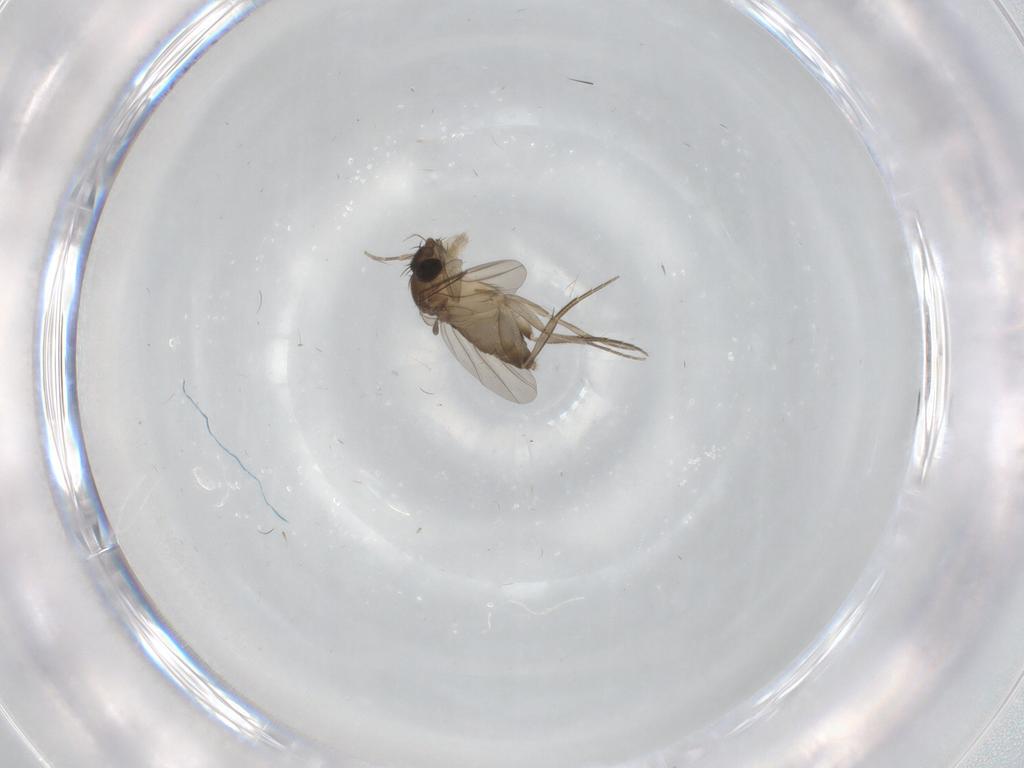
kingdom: Animalia
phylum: Arthropoda
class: Insecta
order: Diptera
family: Phoridae
